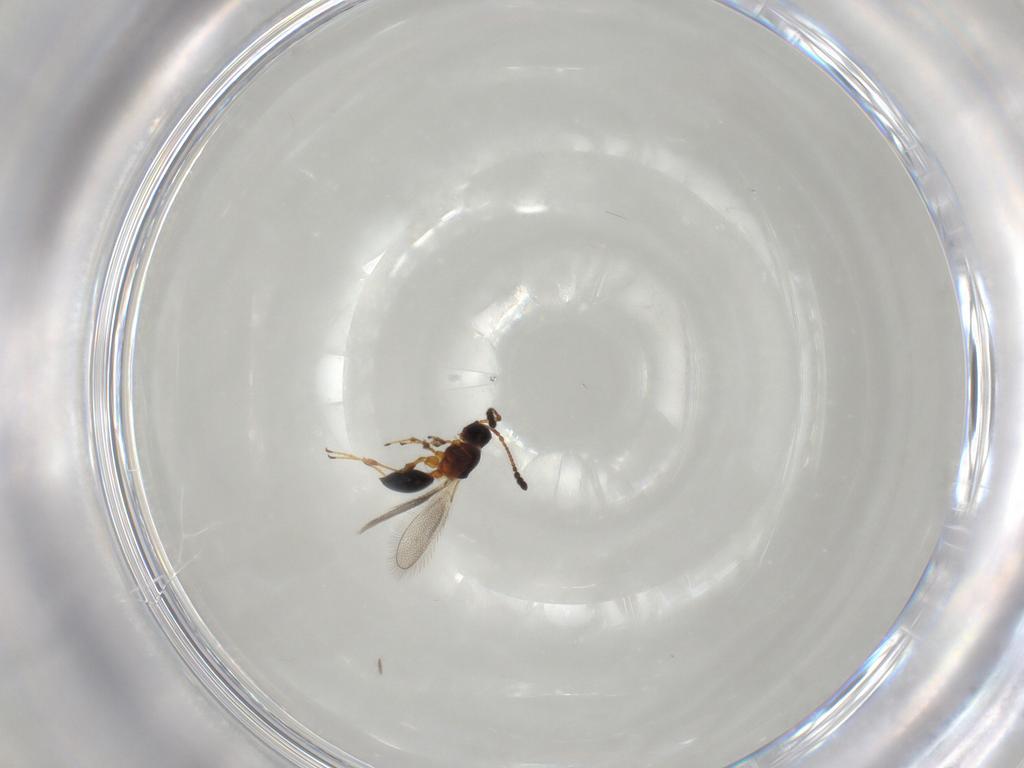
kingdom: Animalia
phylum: Arthropoda
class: Insecta
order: Hymenoptera
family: Diapriidae
